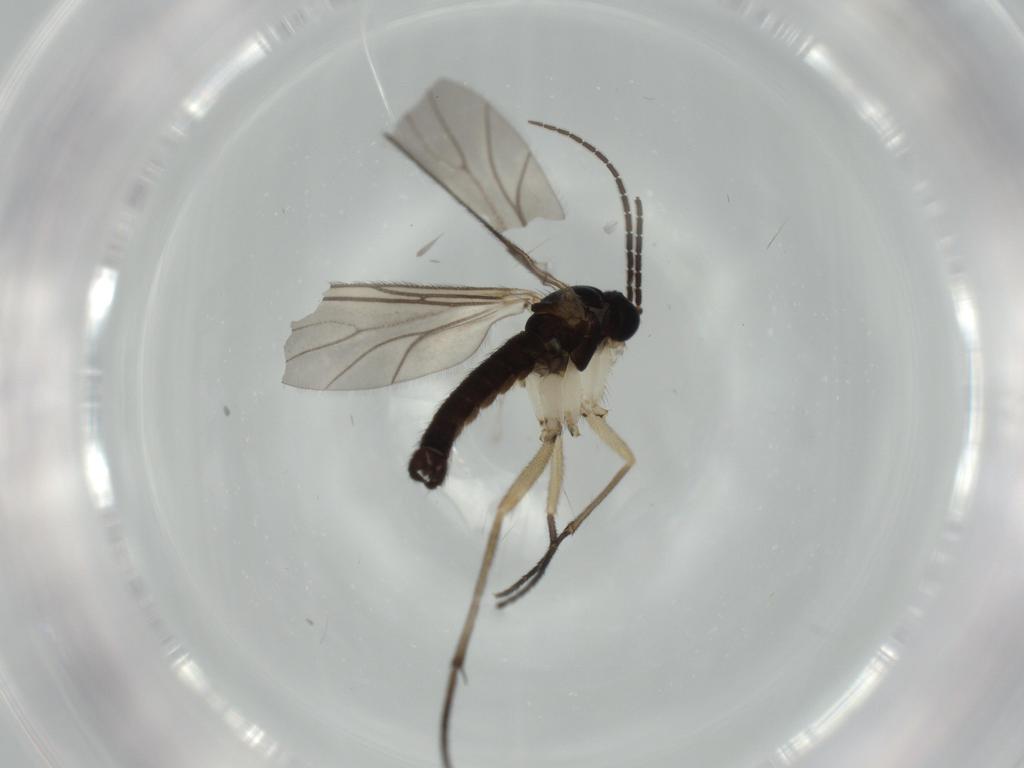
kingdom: Animalia
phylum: Arthropoda
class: Insecta
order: Diptera
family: Sciaridae
